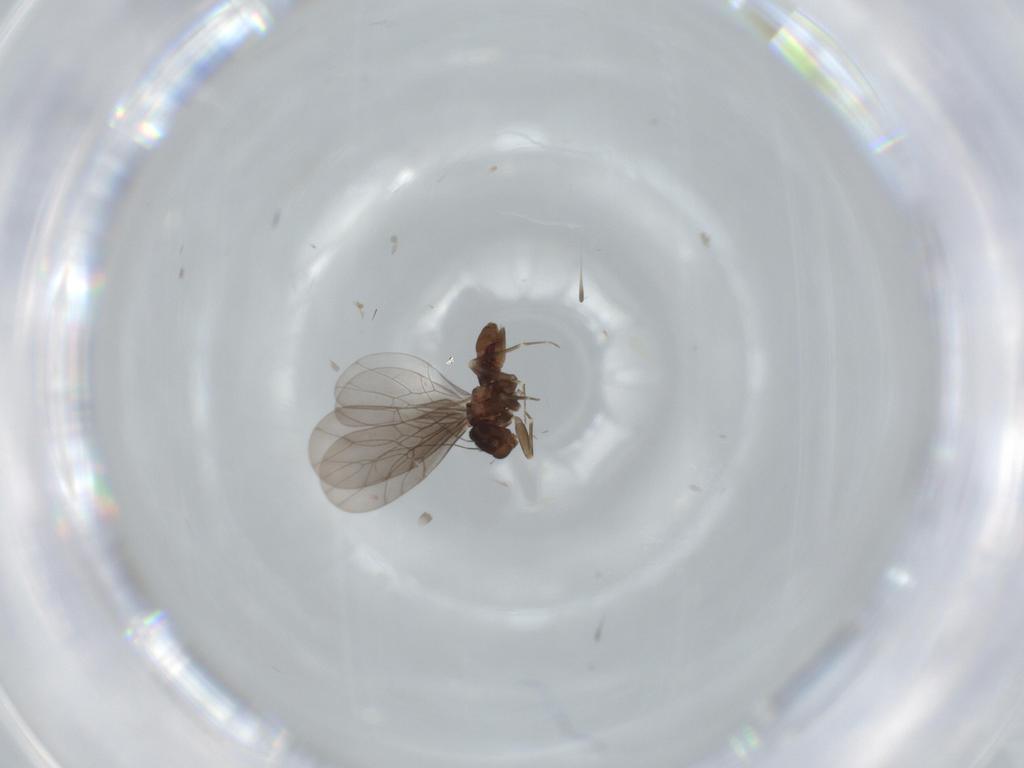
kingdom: Animalia
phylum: Arthropoda
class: Insecta
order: Psocodea
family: Lepidopsocidae
